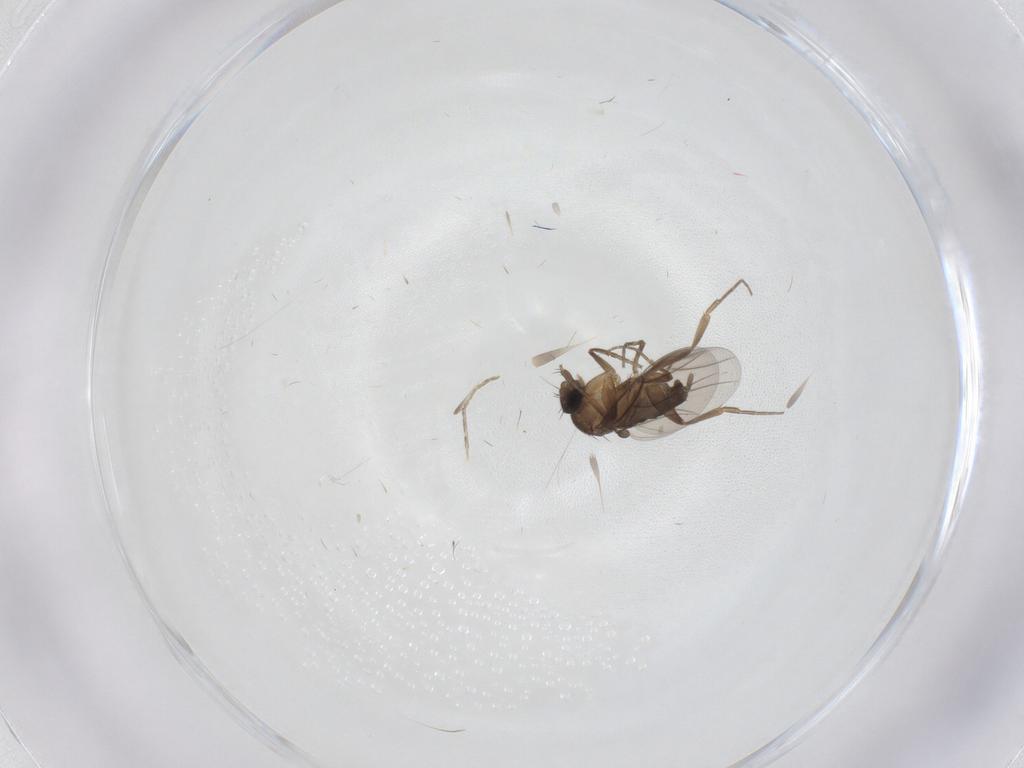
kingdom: Animalia
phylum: Arthropoda
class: Insecta
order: Diptera
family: Phoridae
